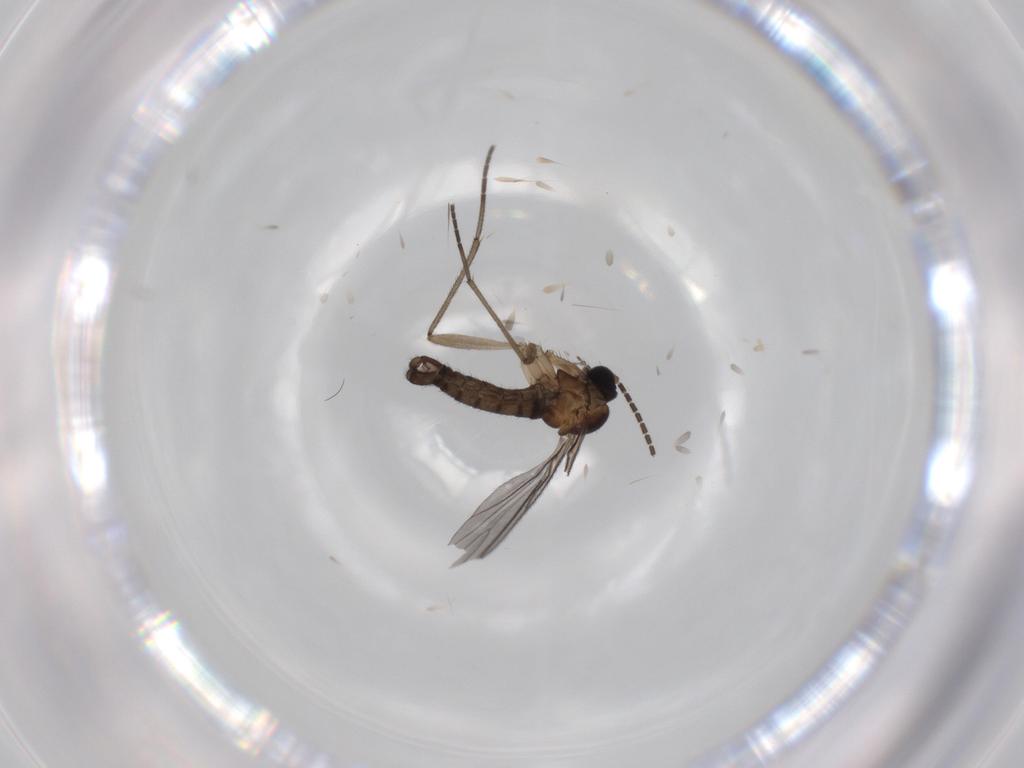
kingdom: Animalia
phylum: Arthropoda
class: Insecta
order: Diptera
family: Sciaridae
